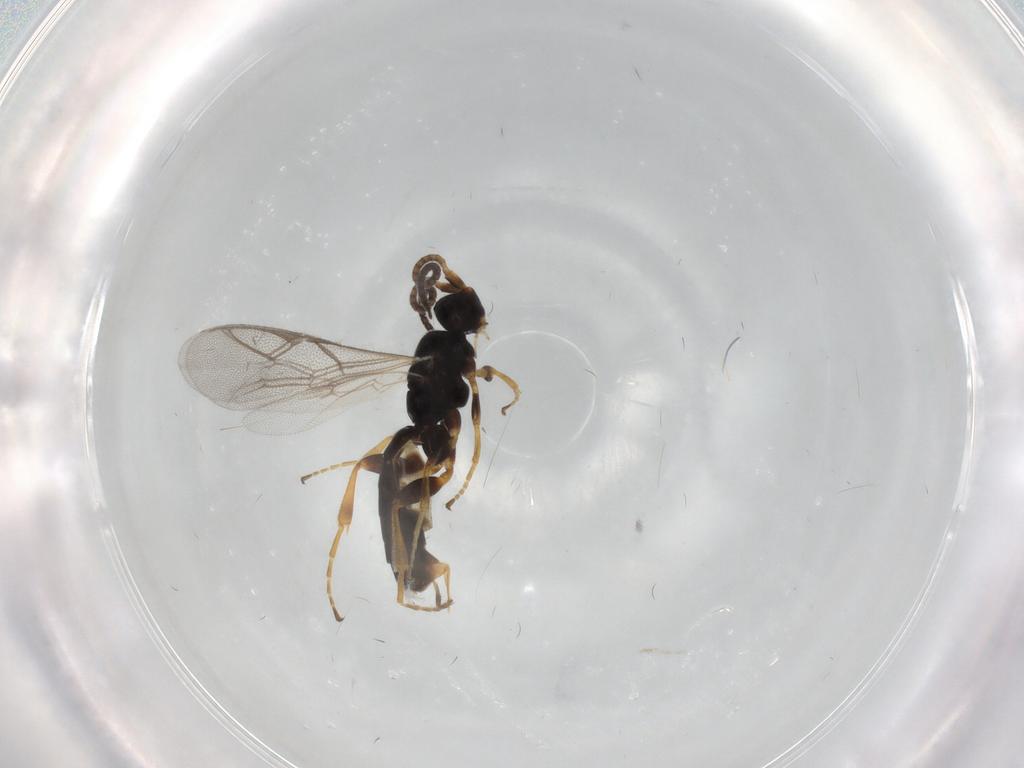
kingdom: Animalia
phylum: Arthropoda
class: Insecta
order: Hymenoptera
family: Ichneumonidae
